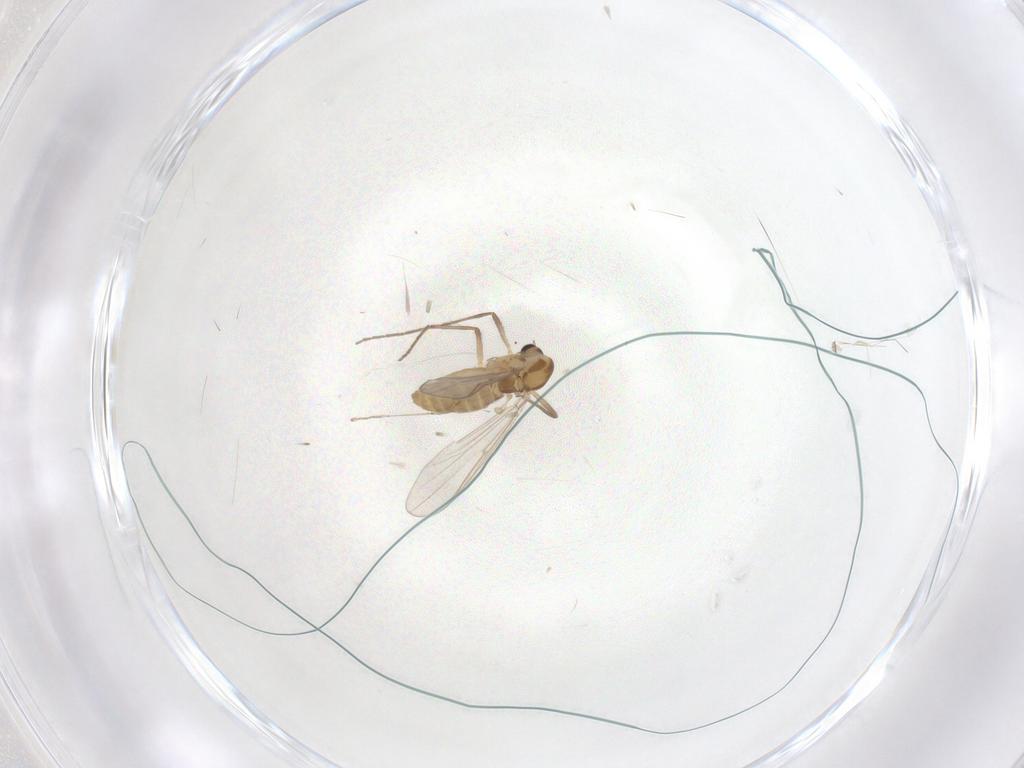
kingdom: Animalia
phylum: Arthropoda
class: Insecta
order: Diptera
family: Chironomidae
